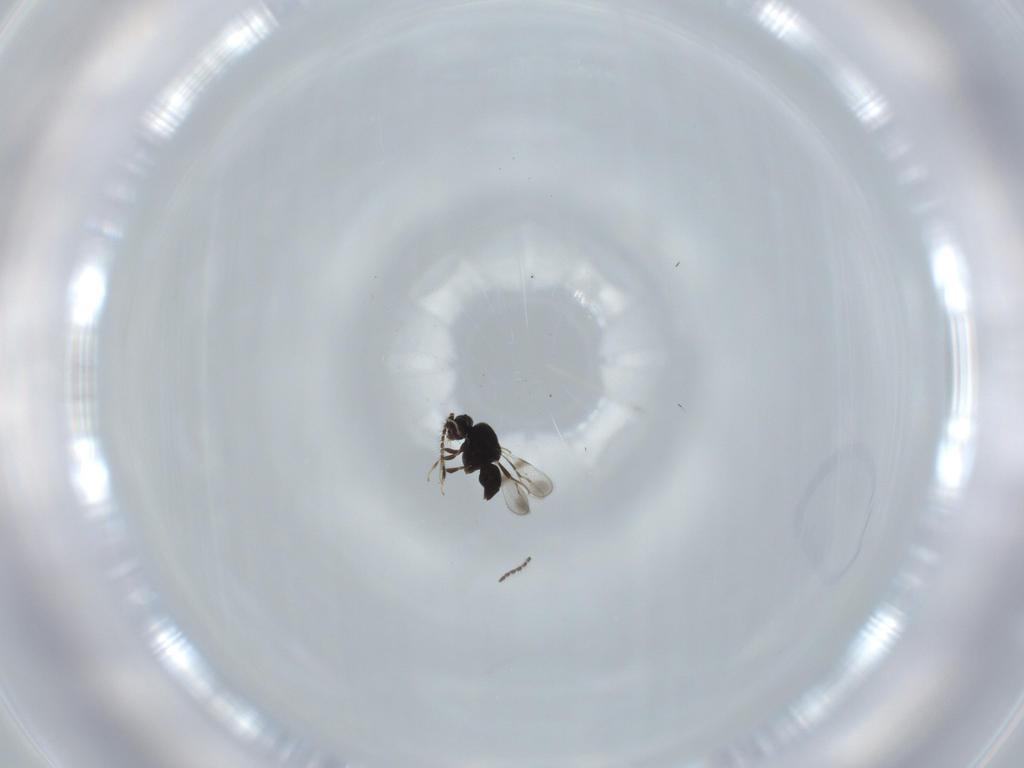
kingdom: Animalia
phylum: Arthropoda
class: Insecta
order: Hymenoptera
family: Ceraphronidae
